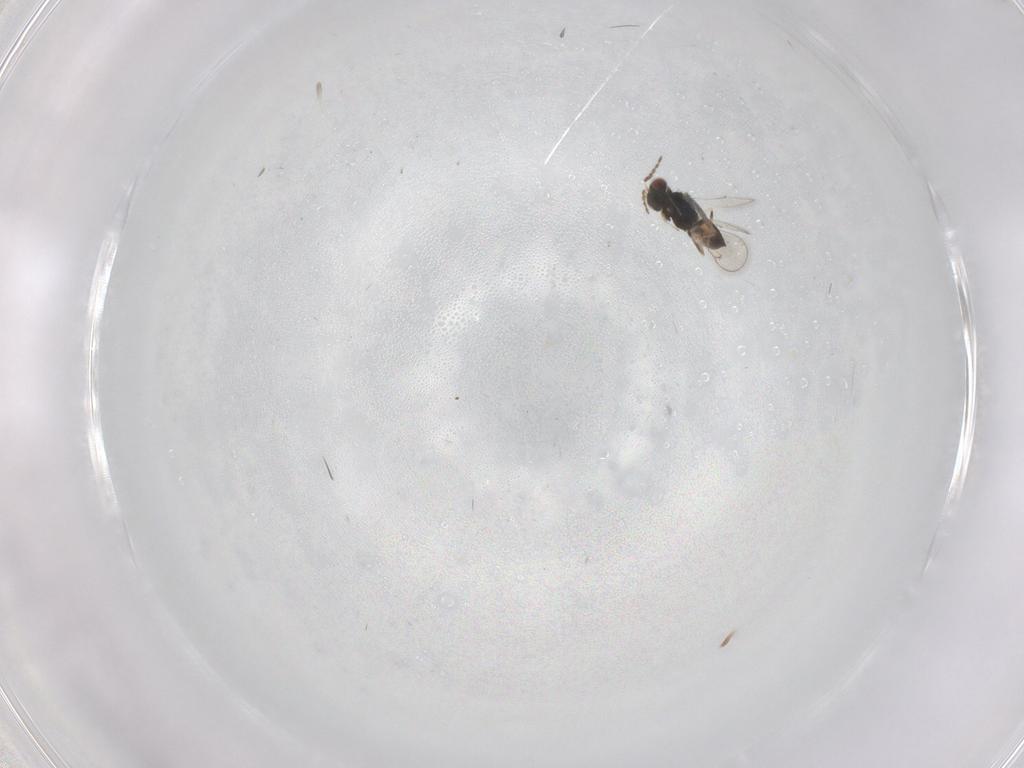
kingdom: Animalia
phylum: Arthropoda
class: Insecta
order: Hymenoptera
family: Eulophidae
